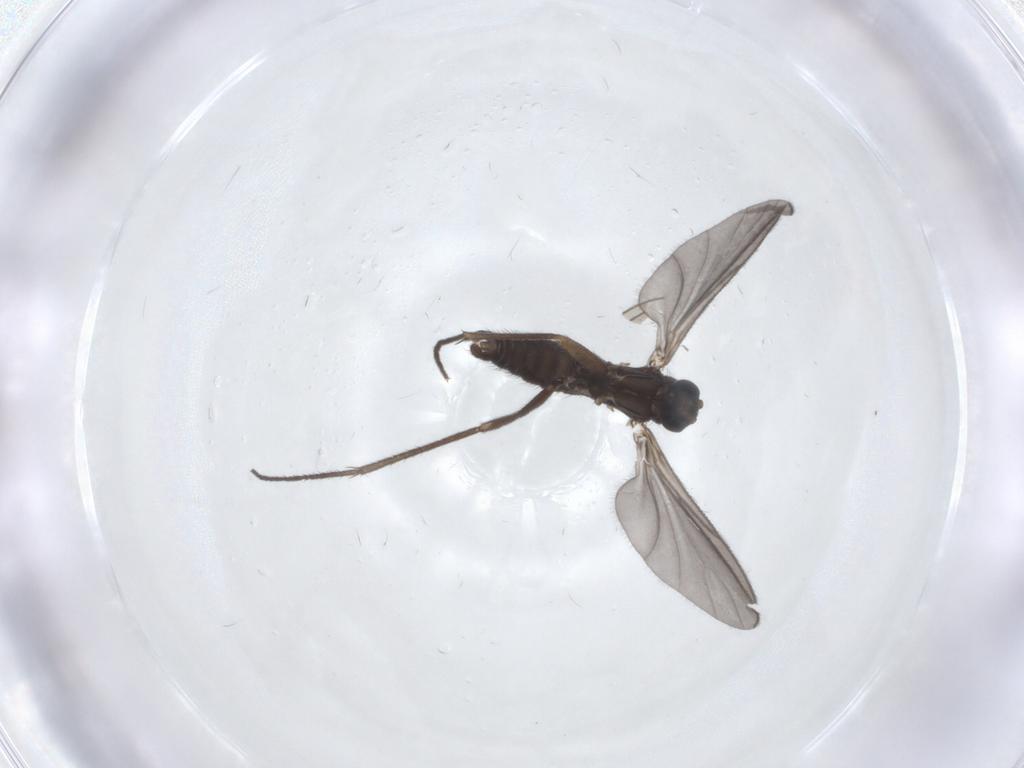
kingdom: Animalia
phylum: Arthropoda
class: Insecta
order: Diptera
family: Sciaridae
